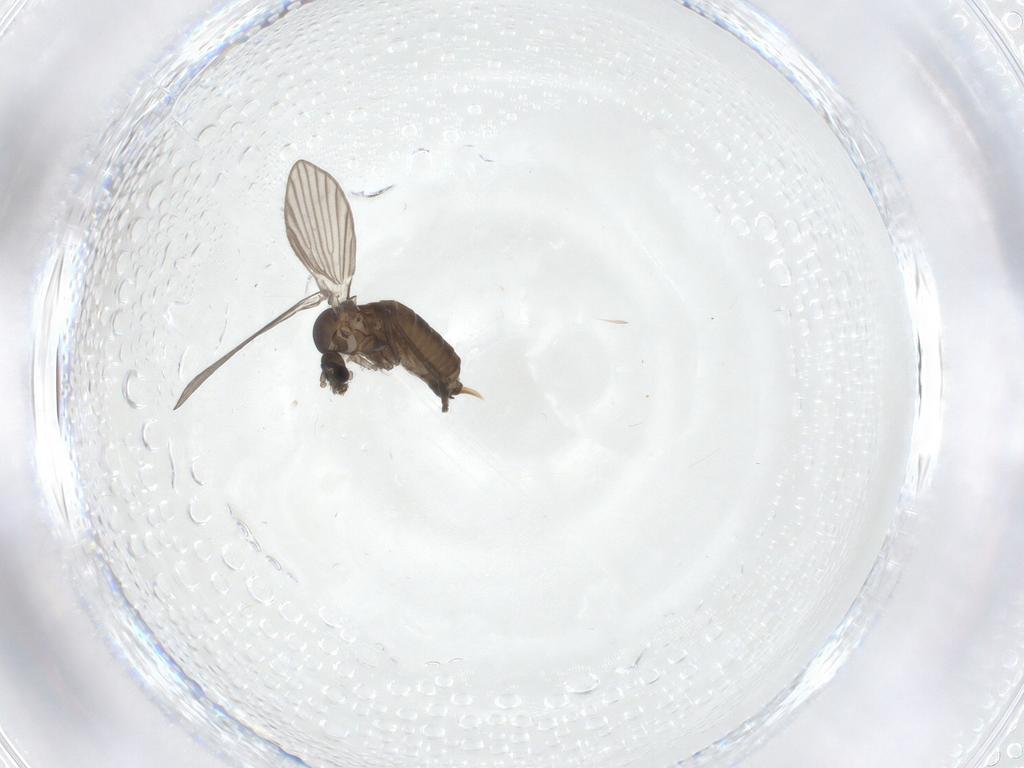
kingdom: Animalia
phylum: Arthropoda
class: Insecta
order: Diptera
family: Psychodidae
